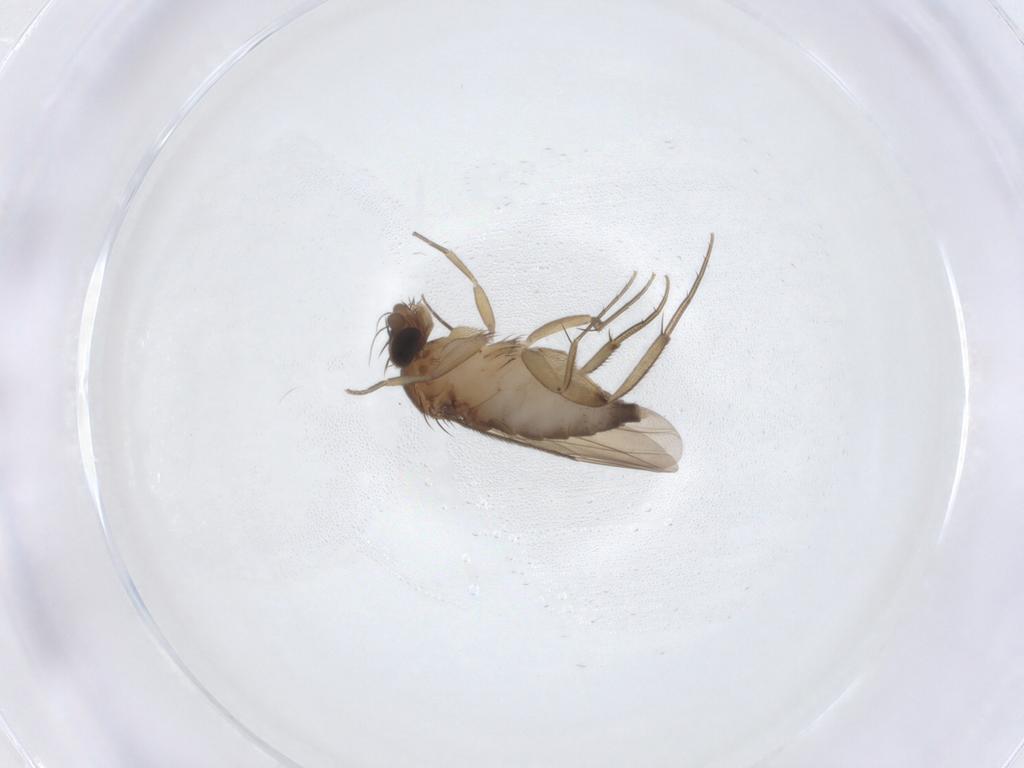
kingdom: Animalia
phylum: Arthropoda
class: Insecta
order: Diptera
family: Phoridae
